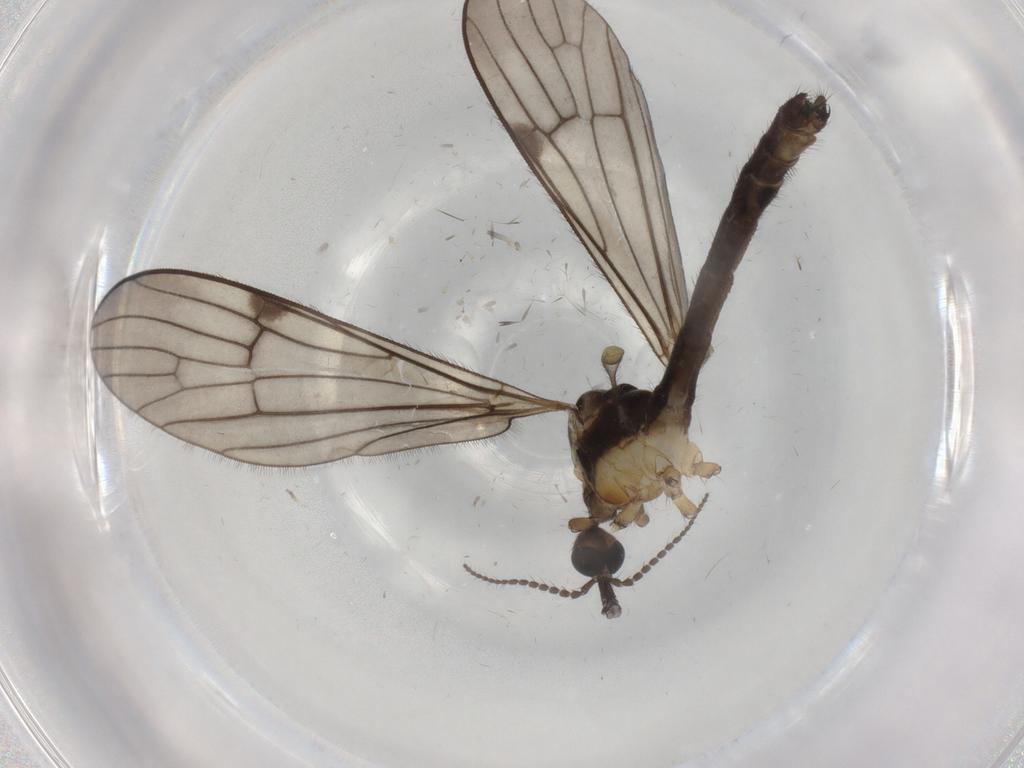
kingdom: Animalia
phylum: Arthropoda
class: Insecta
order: Diptera
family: Limoniidae
